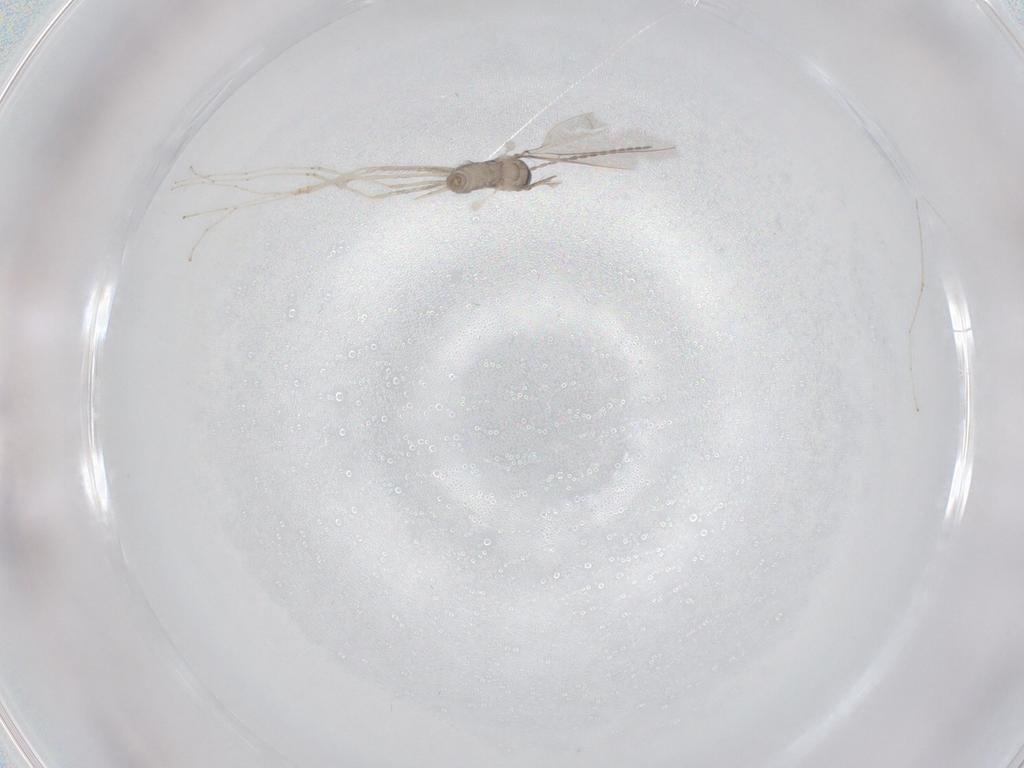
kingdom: Animalia
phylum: Arthropoda
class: Insecta
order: Diptera
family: Sciaridae
